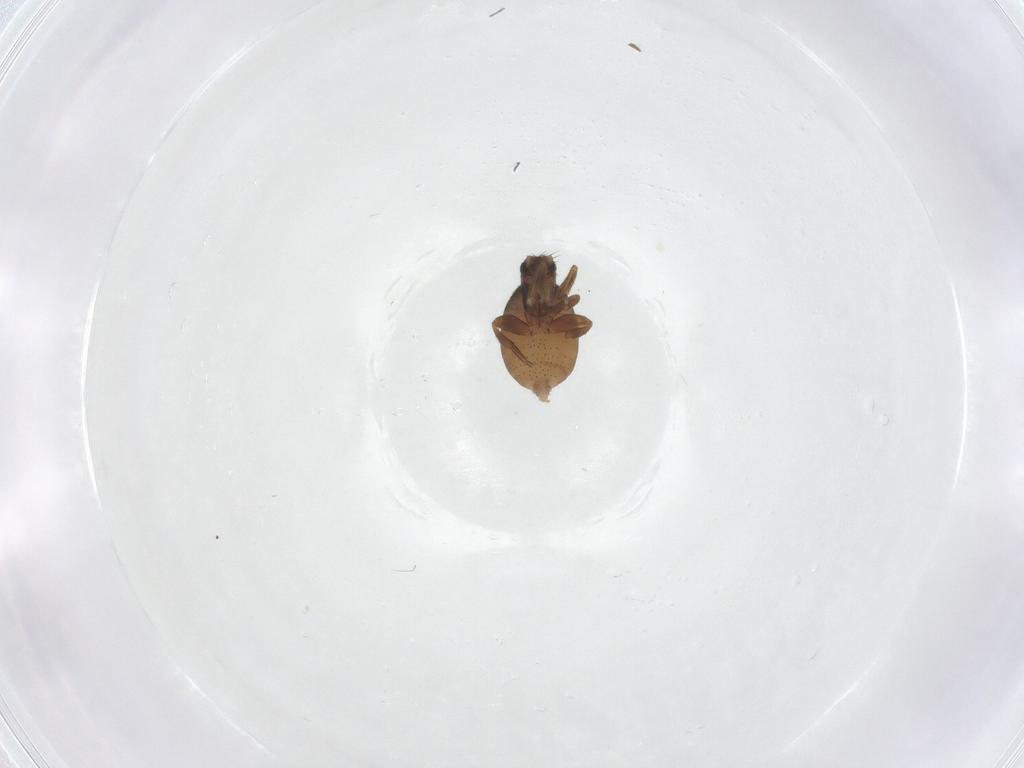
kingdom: Animalia
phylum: Arthropoda
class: Insecta
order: Diptera
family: Phoridae
